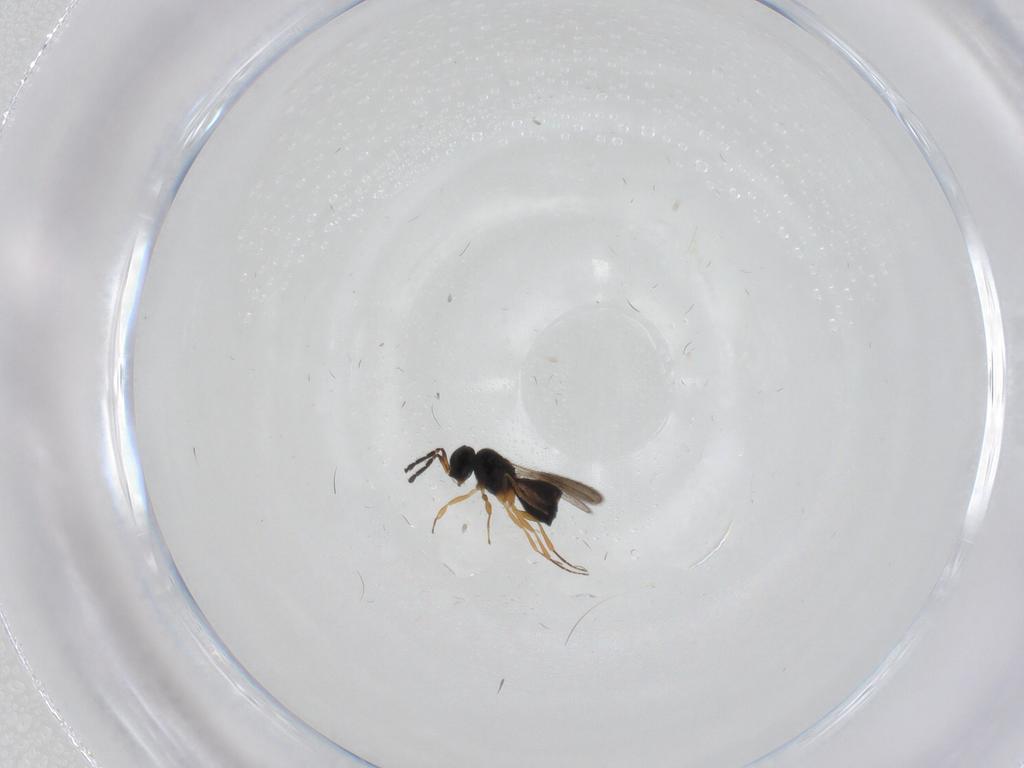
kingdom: Animalia
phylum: Arthropoda
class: Insecta
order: Hymenoptera
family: Scelionidae
